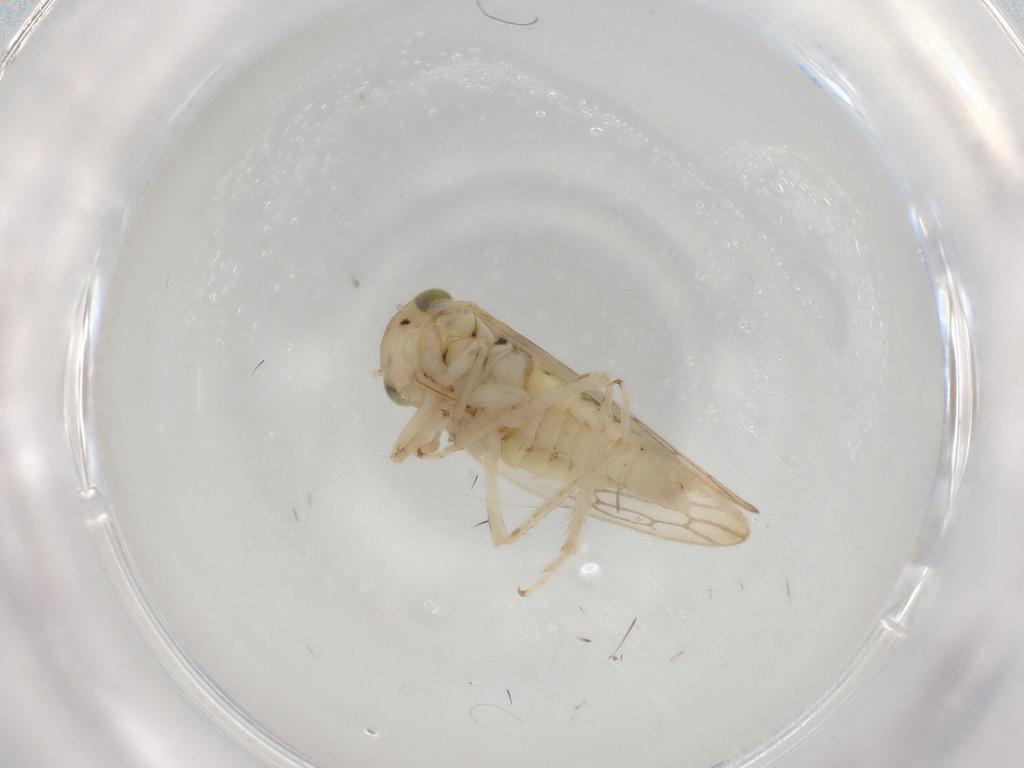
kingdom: Animalia
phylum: Arthropoda
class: Insecta
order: Hemiptera
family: Cicadellidae
